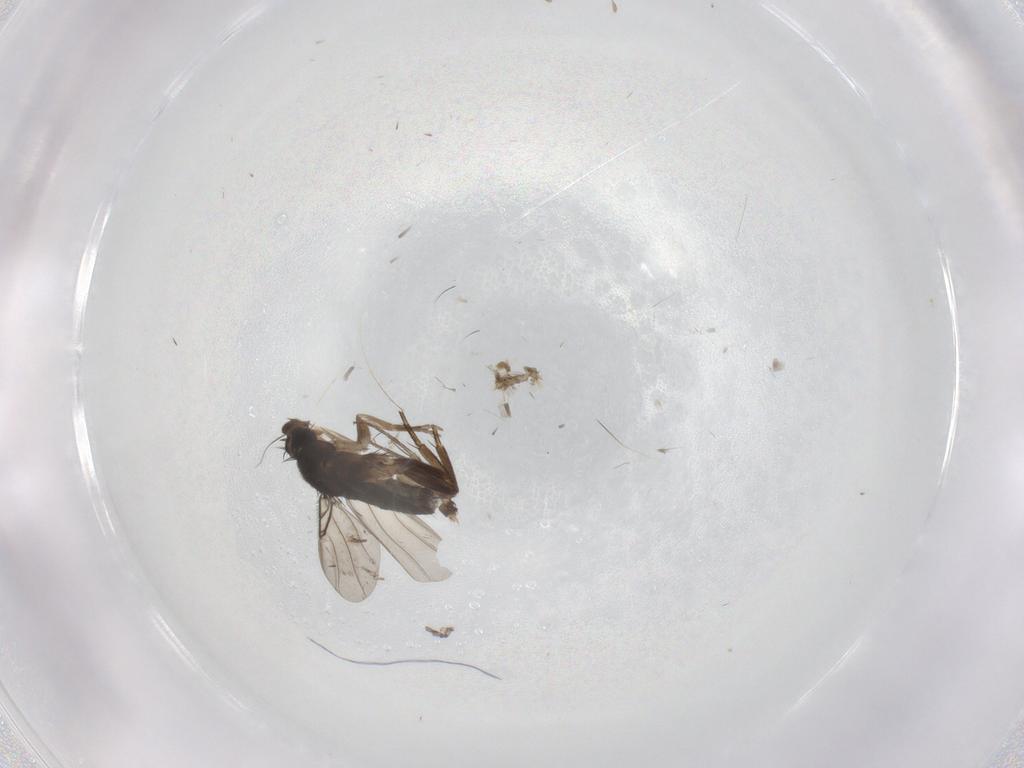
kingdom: Animalia
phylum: Arthropoda
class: Insecta
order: Diptera
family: Phoridae
